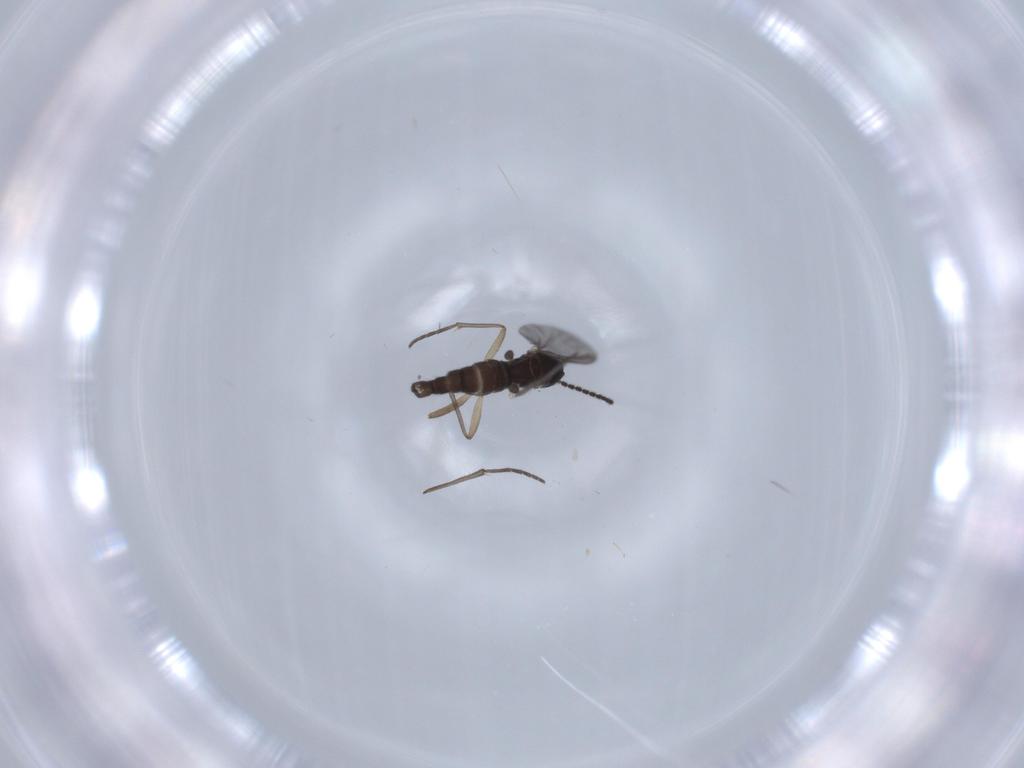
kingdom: Animalia
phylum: Arthropoda
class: Insecta
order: Diptera
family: Sciaridae
